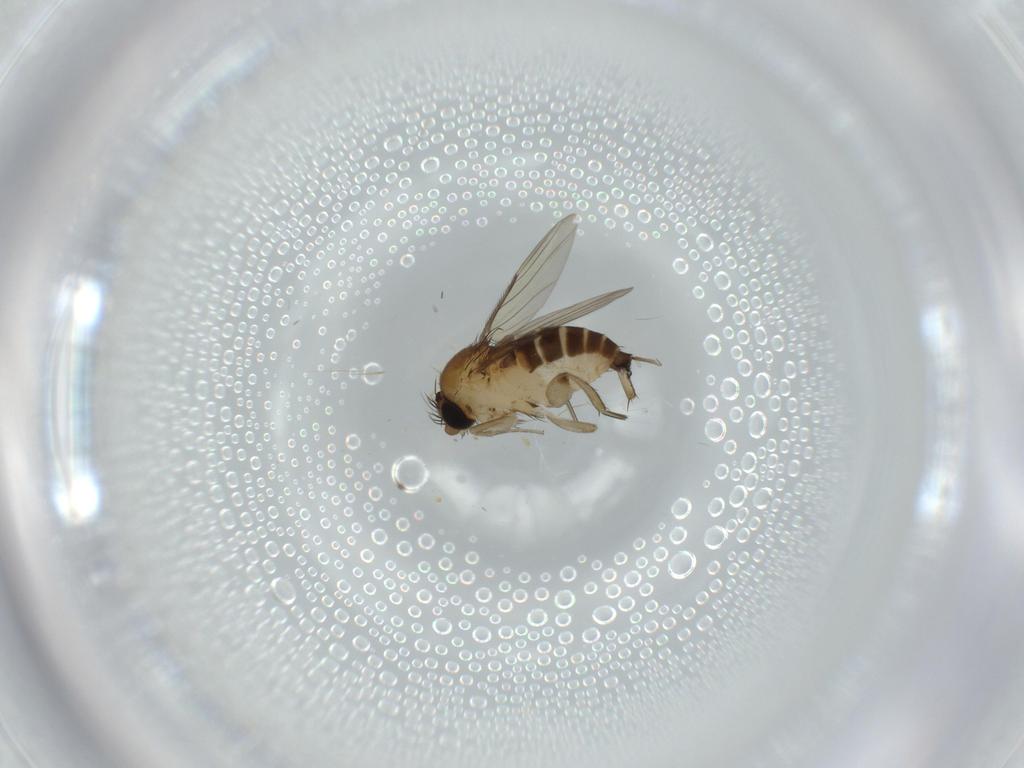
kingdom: Animalia
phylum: Arthropoda
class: Insecta
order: Diptera
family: Phoridae
